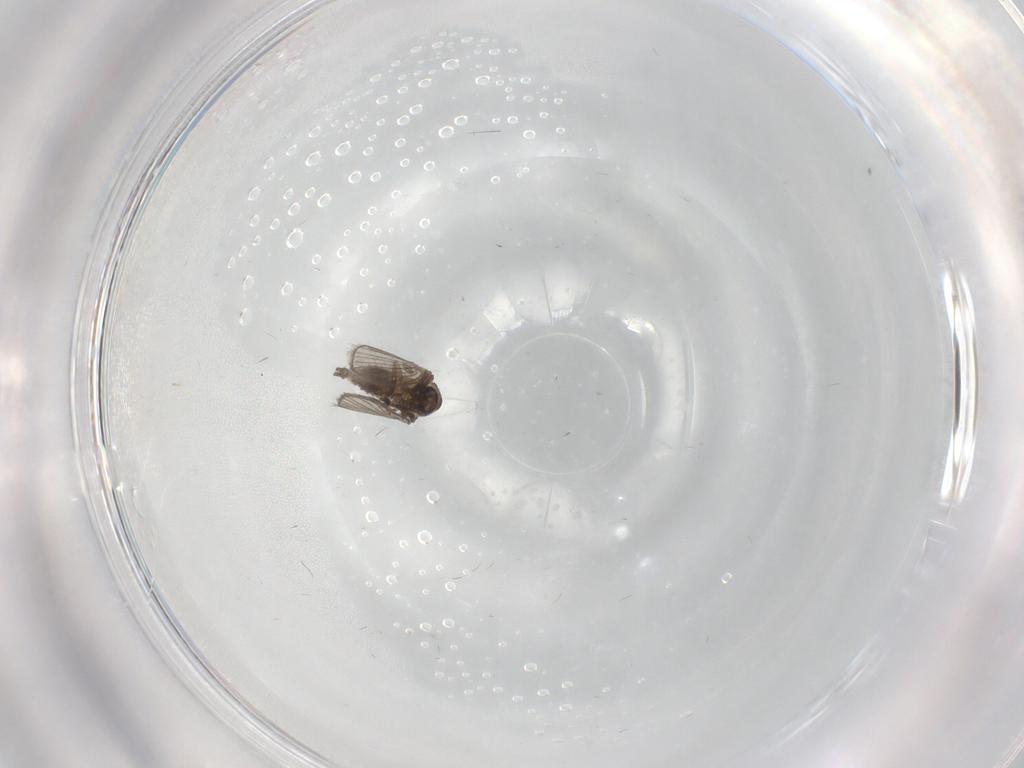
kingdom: Animalia
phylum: Arthropoda
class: Insecta
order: Diptera
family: Psychodidae
